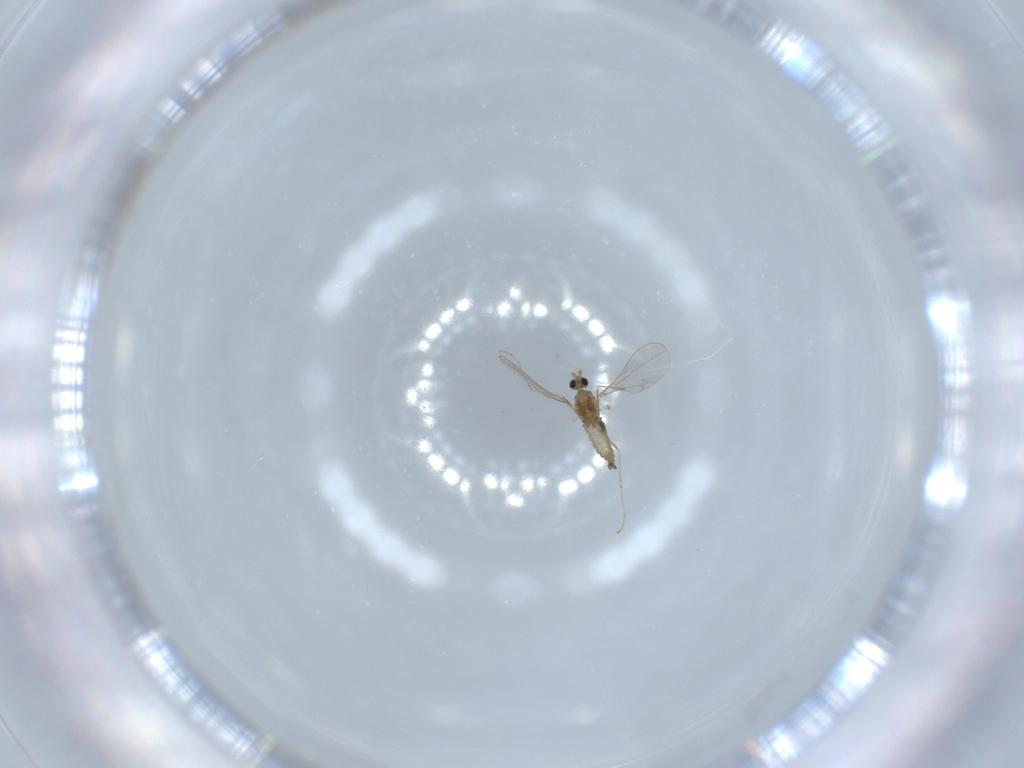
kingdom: Animalia
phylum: Arthropoda
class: Insecta
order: Diptera
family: Cecidomyiidae
